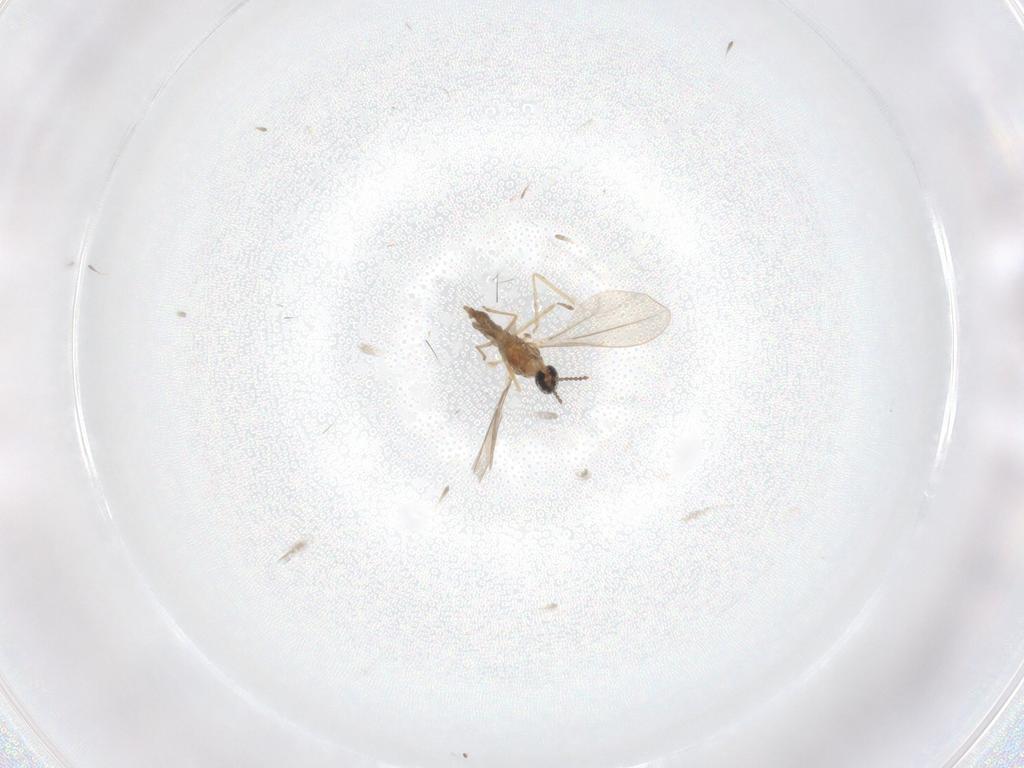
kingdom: Animalia
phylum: Arthropoda
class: Insecta
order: Diptera
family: Cecidomyiidae
